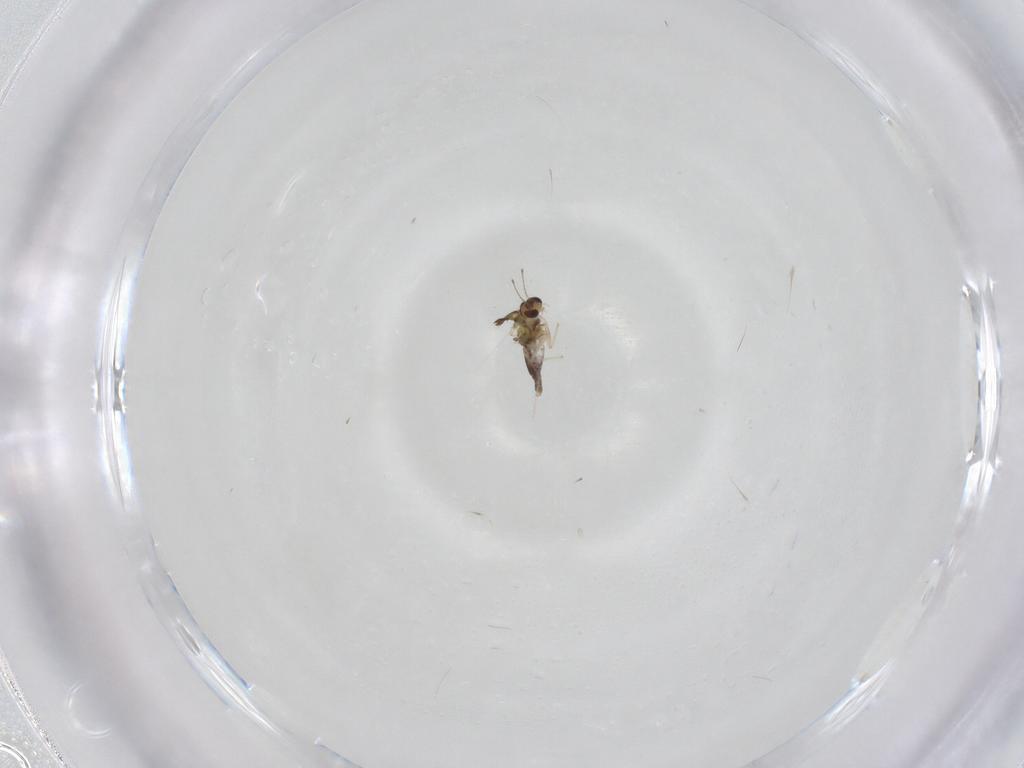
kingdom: Animalia
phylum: Arthropoda
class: Insecta
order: Diptera
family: Chironomidae
